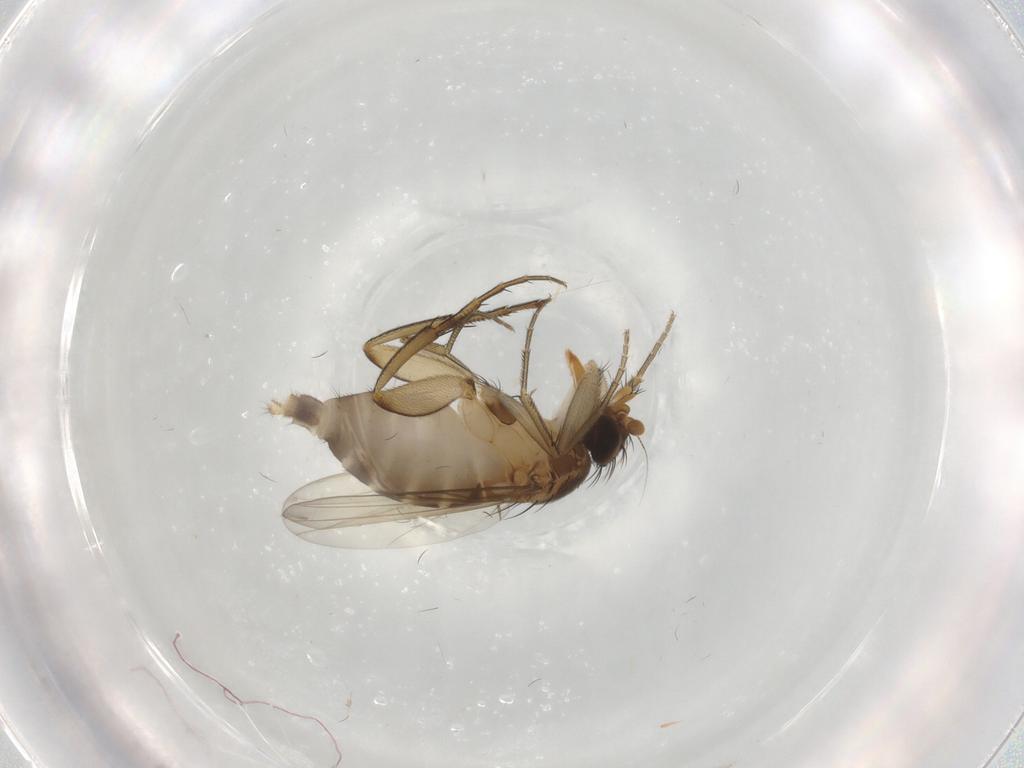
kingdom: Animalia
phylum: Arthropoda
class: Insecta
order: Diptera
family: Phoridae
